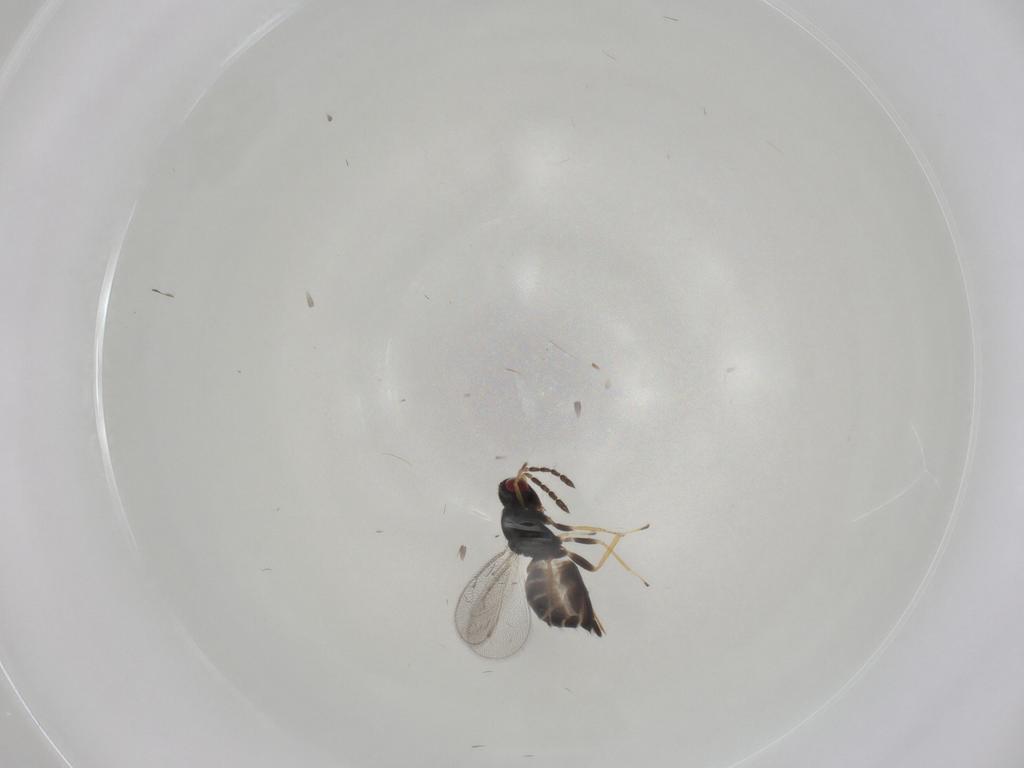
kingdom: Animalia
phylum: Arthropoda
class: Insecta
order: Hymenoptera
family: Eulophidae
